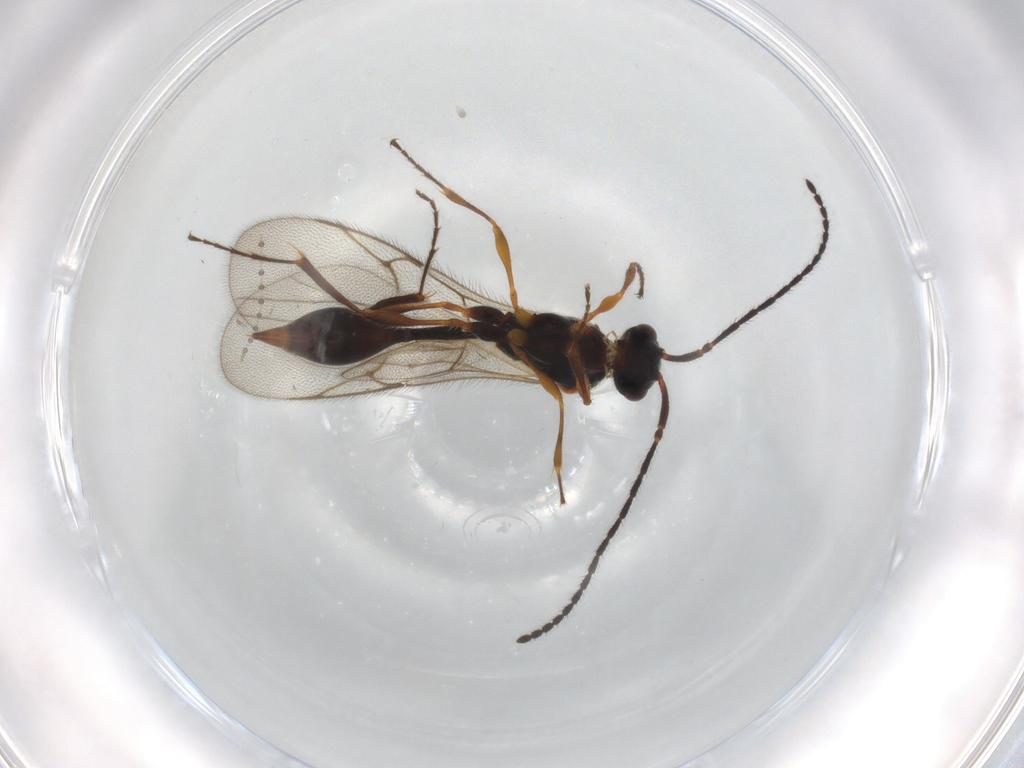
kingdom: Animalia
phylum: Arthropoda
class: Insecta
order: Hymenoptera
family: Diapriidae
